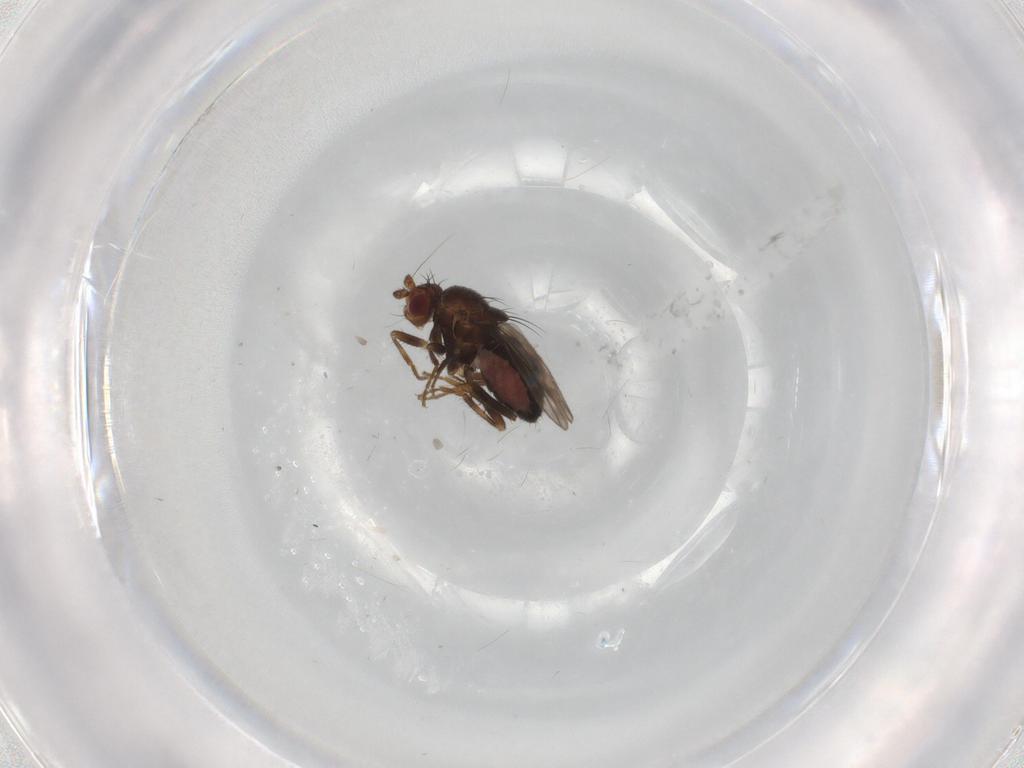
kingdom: Animalia
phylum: Arthropoda
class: Insecta
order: Diptera
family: Sphaeroceridae
